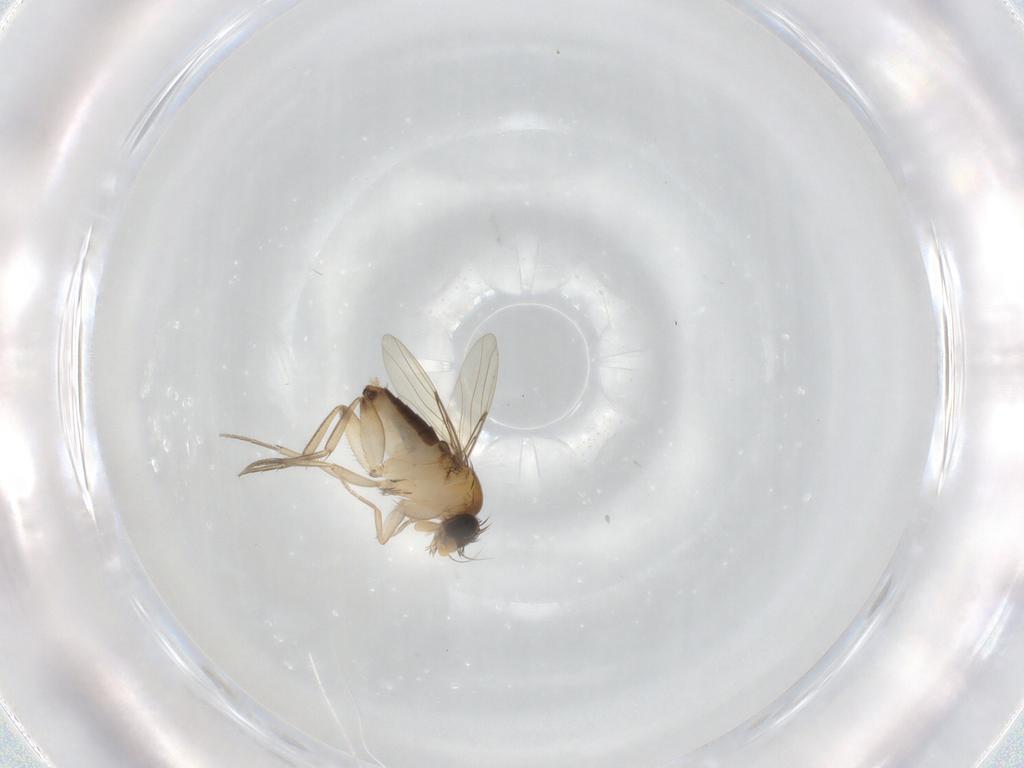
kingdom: Animalia
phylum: Arthropoda
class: Insecta
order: Diptera
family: Phoridae
